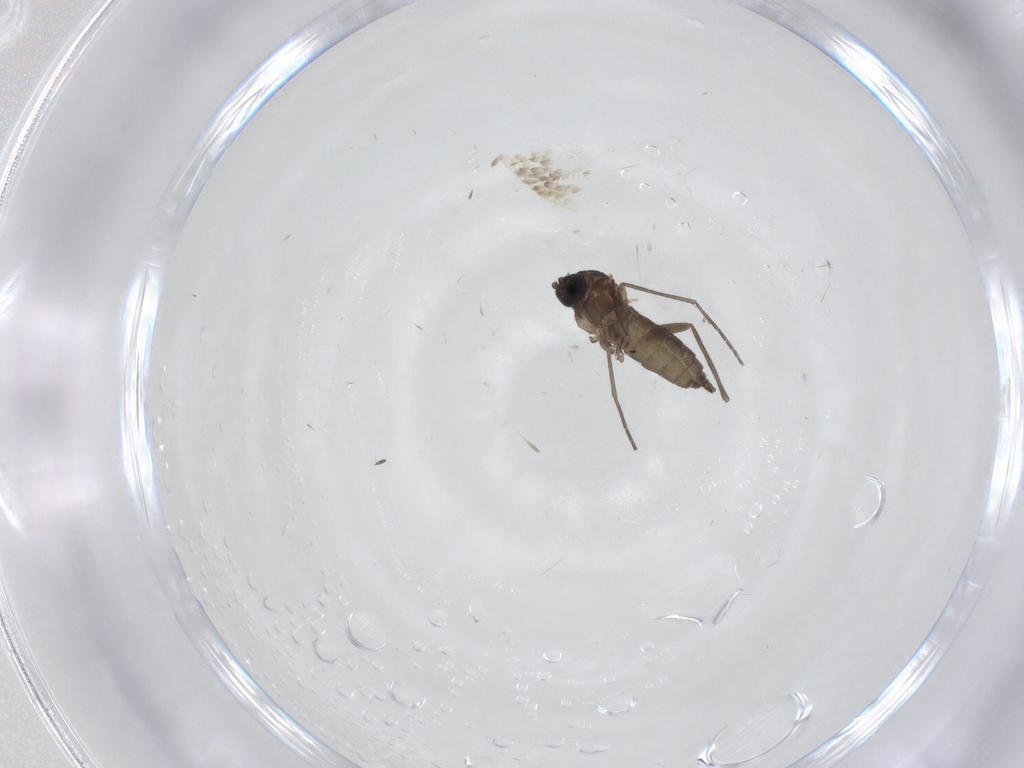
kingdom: Animalia
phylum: Arthropoda
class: Insecta
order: Diptera
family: Sciaridae
